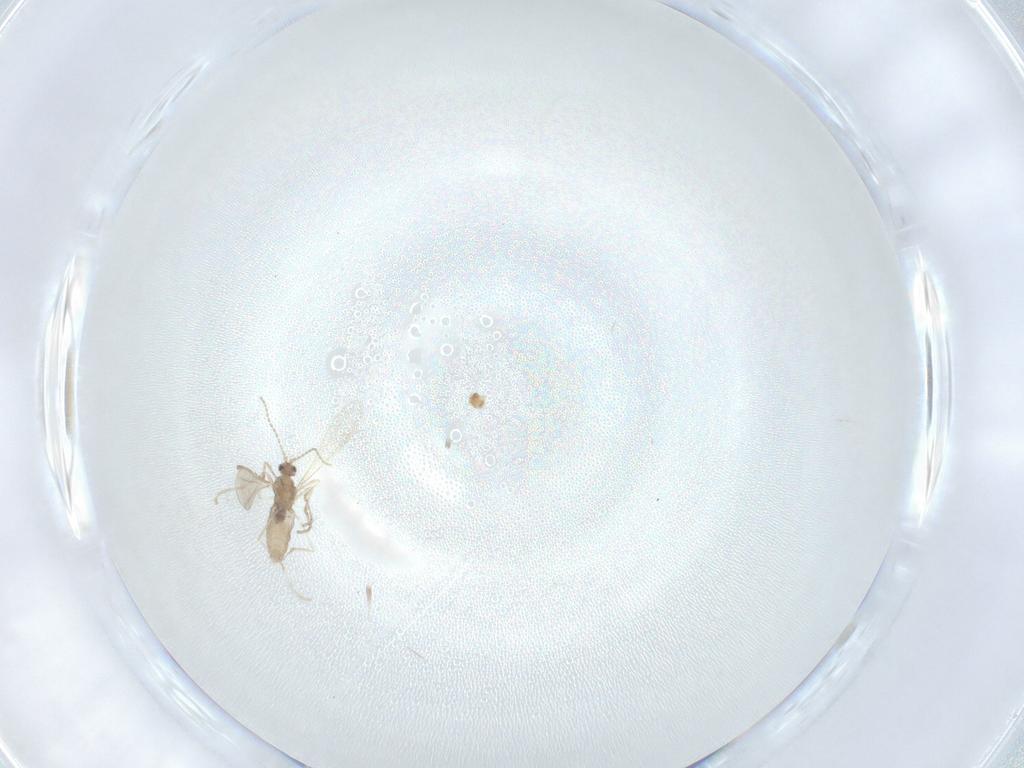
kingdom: Animalia
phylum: Arthropoda
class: Insecta
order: Diptera
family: Cecidomyiidae
